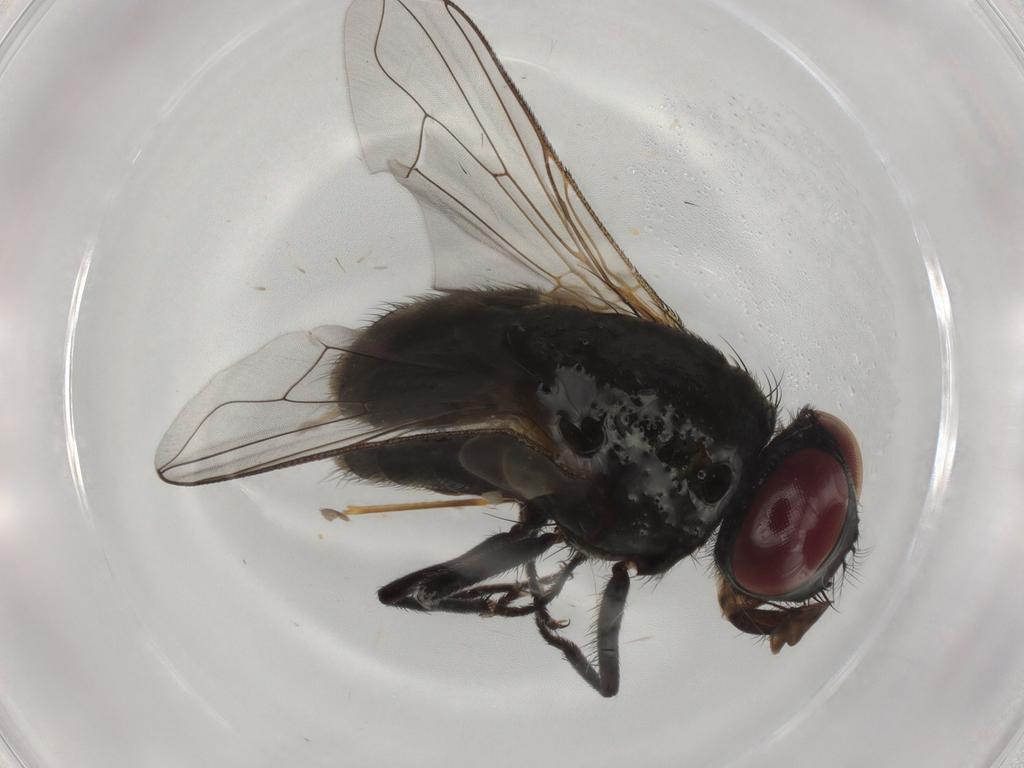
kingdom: Animalia
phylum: Arthropoda
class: Insecta
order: Diptera
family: Muscidae
